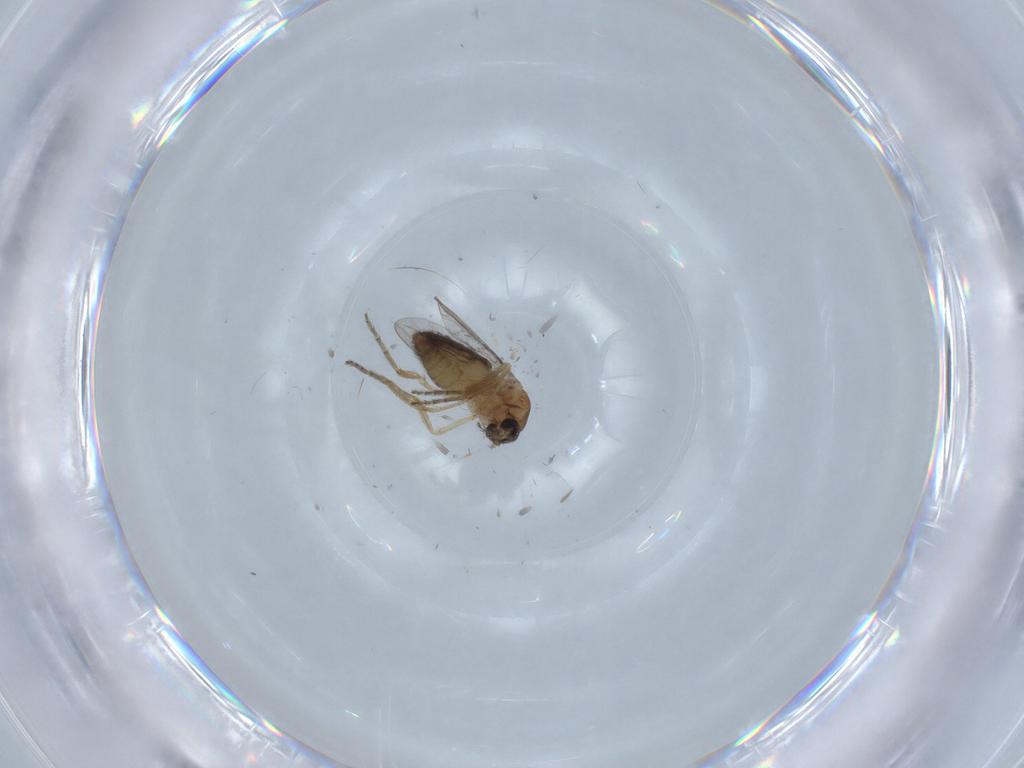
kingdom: Animalia
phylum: Arthropoda
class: Insecta
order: Diptera
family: Ceratopogonidae
